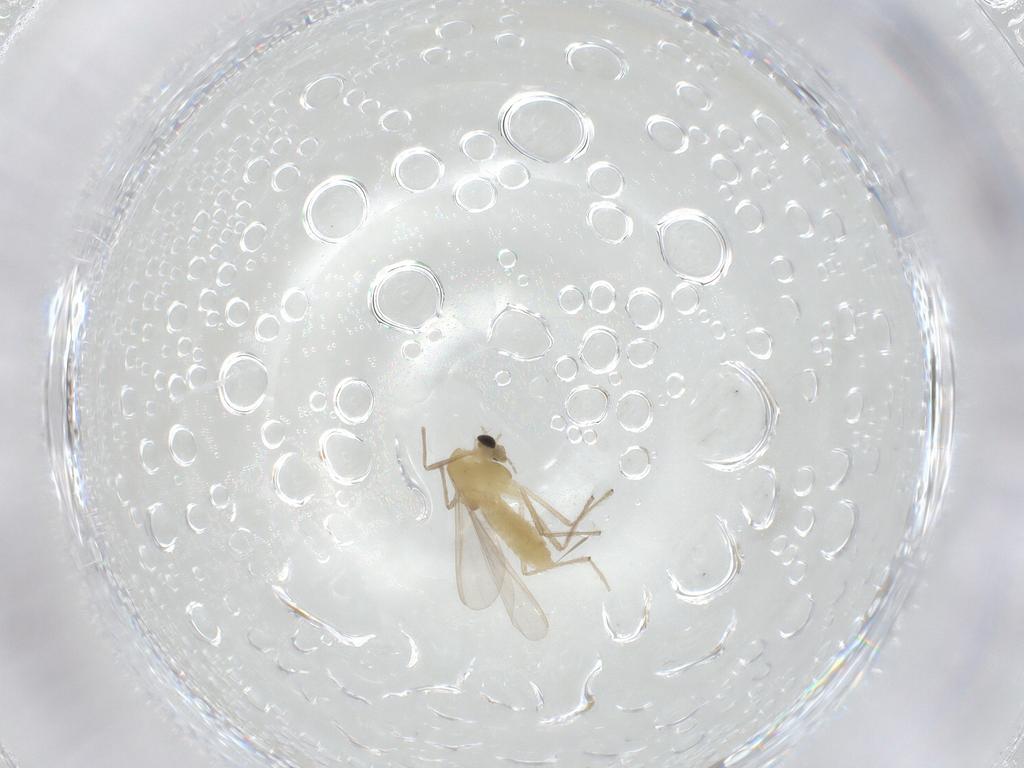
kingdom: Animalia
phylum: Arthropoda
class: Insecta
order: Diptera
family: Chironomidae
